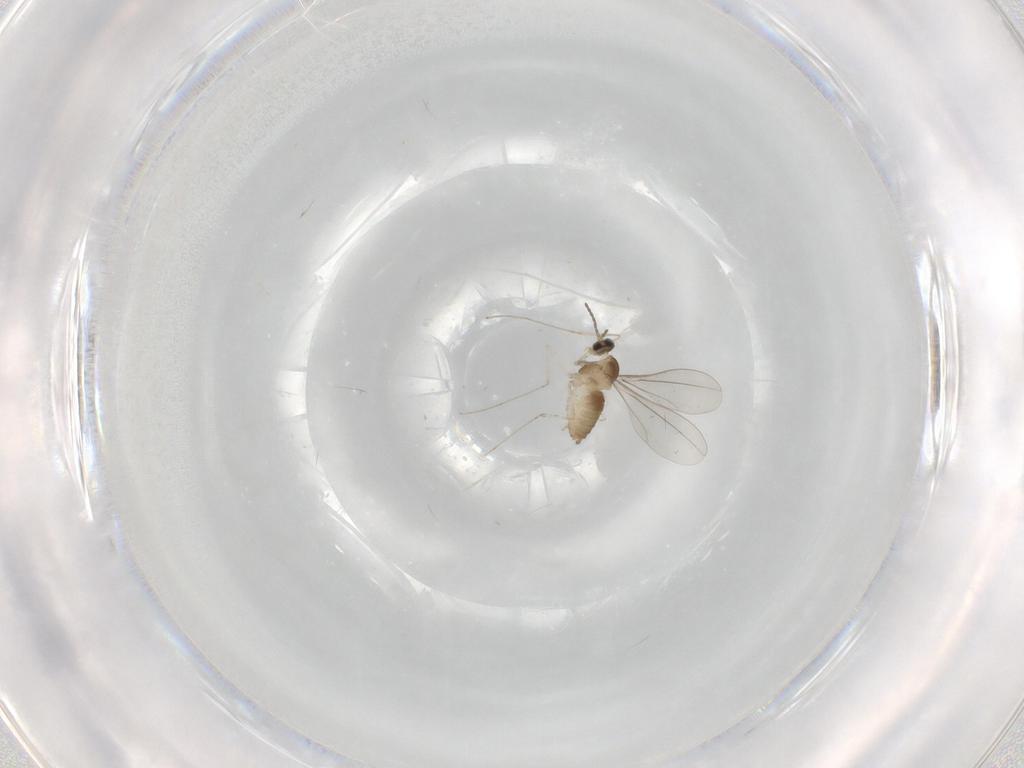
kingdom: Animalia
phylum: Arthropoda
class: Insecta
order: Diptera
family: Cecidomyiidae
